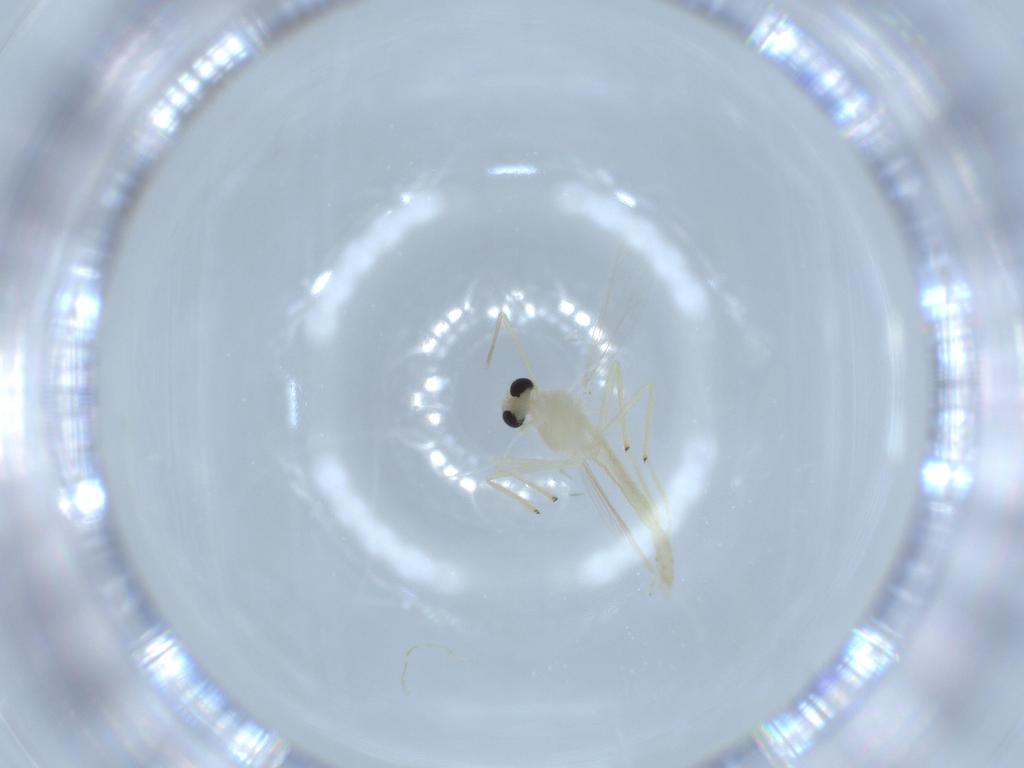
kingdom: Animalia
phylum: Arthropoda
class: Insecta
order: Diptera
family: Chironomidae
